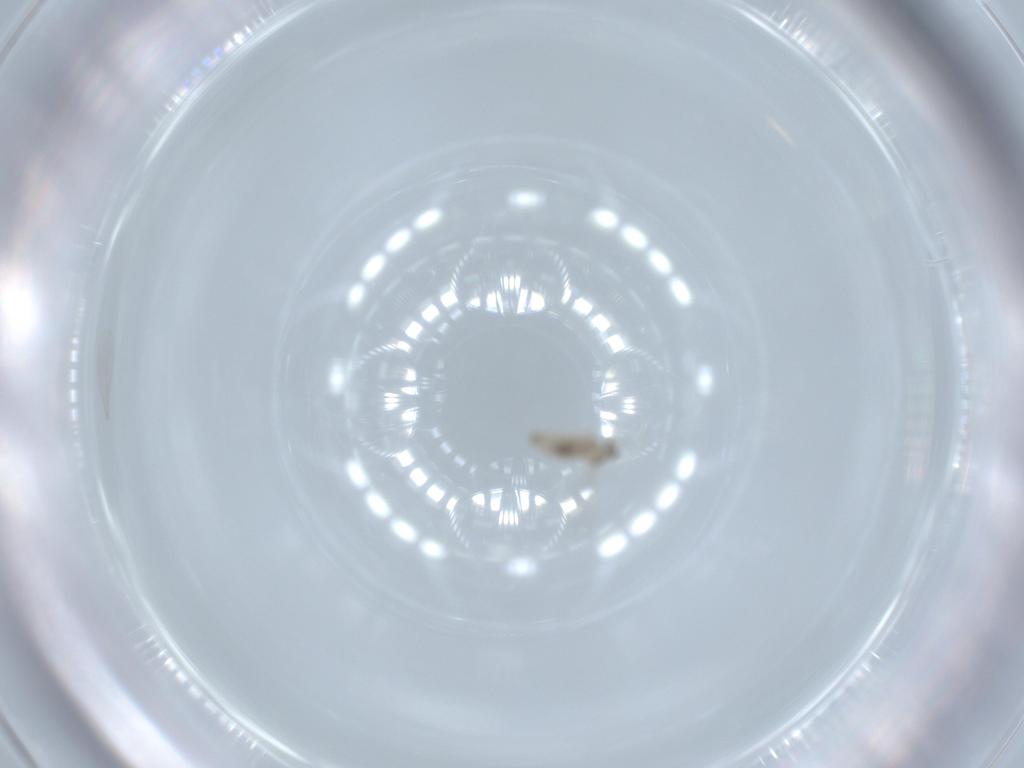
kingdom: Animalia
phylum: Arthropoda
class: Insecta
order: Diptera
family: Cecidomyiidae
